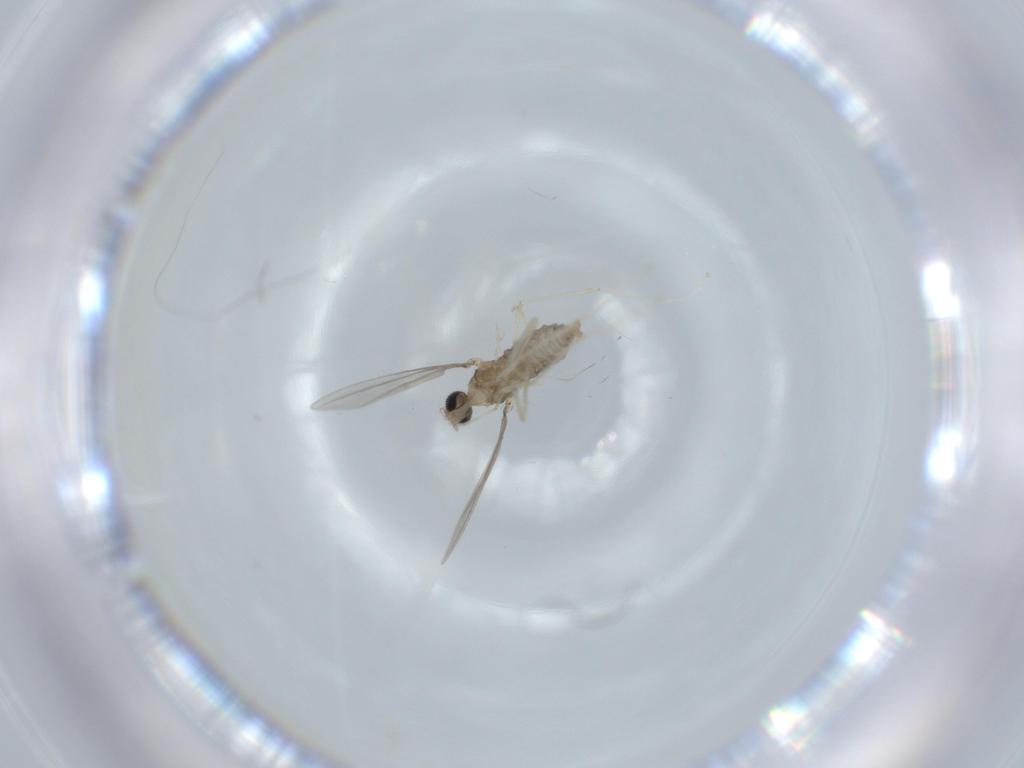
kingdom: Animalia
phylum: Arthropoda
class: Insecta
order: Diptera
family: Cecidomyiidae
